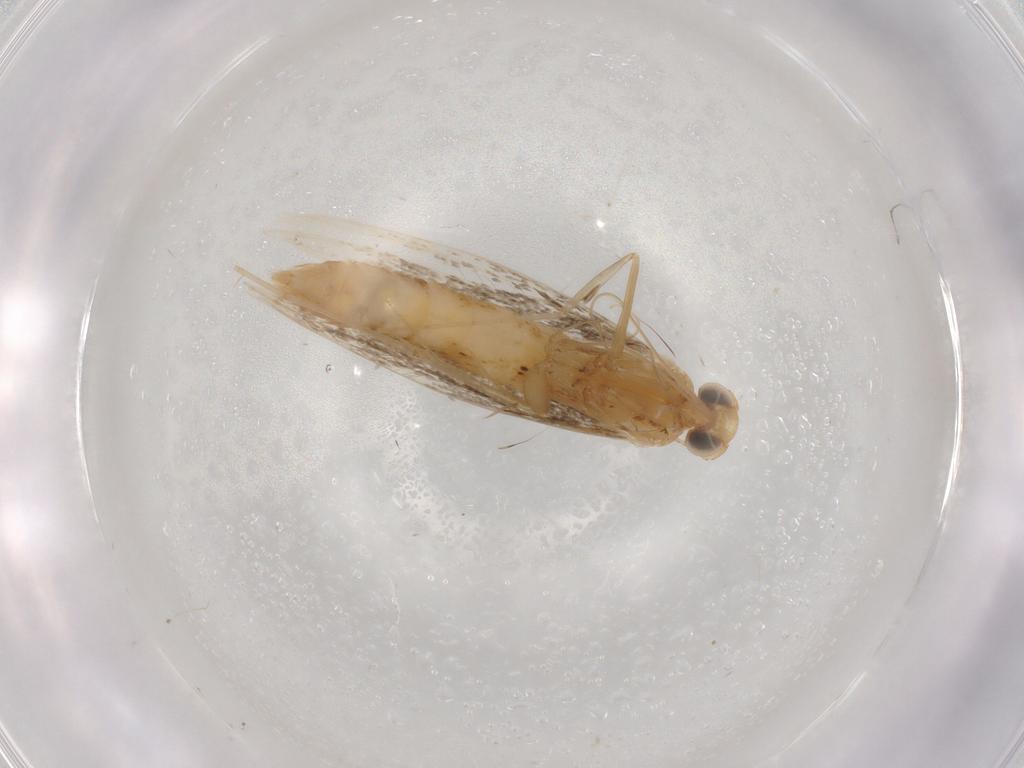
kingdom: Animalia
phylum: Arthropoda
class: Insecta
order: Lepidoptera
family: Gracillariidae
